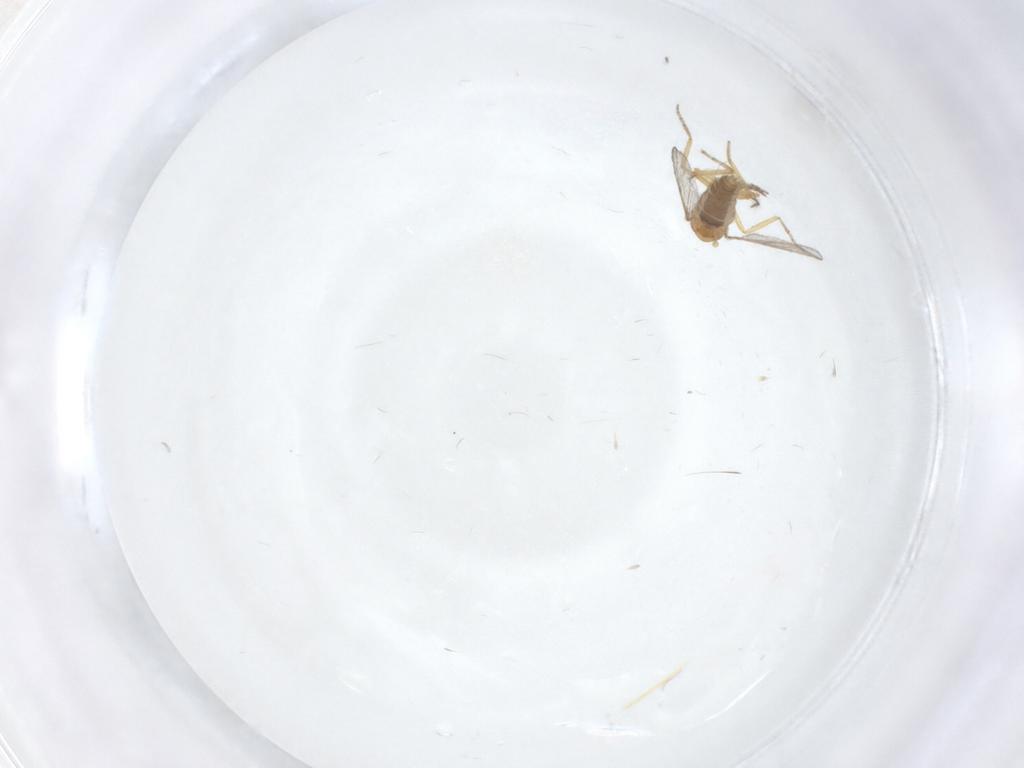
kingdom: Animalia
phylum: Arthropoda
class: Insecta
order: Diptera
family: Ceratopogonidae
